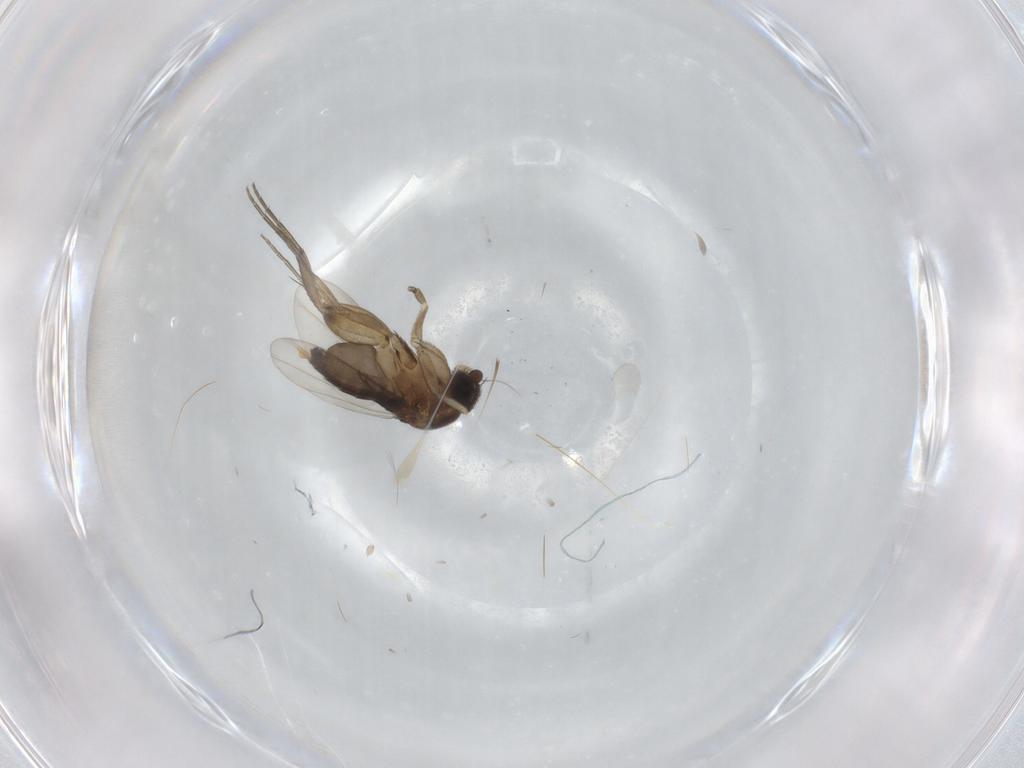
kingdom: Animalia
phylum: Arthropoda
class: Insecta
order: Diptera
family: Phoridae
